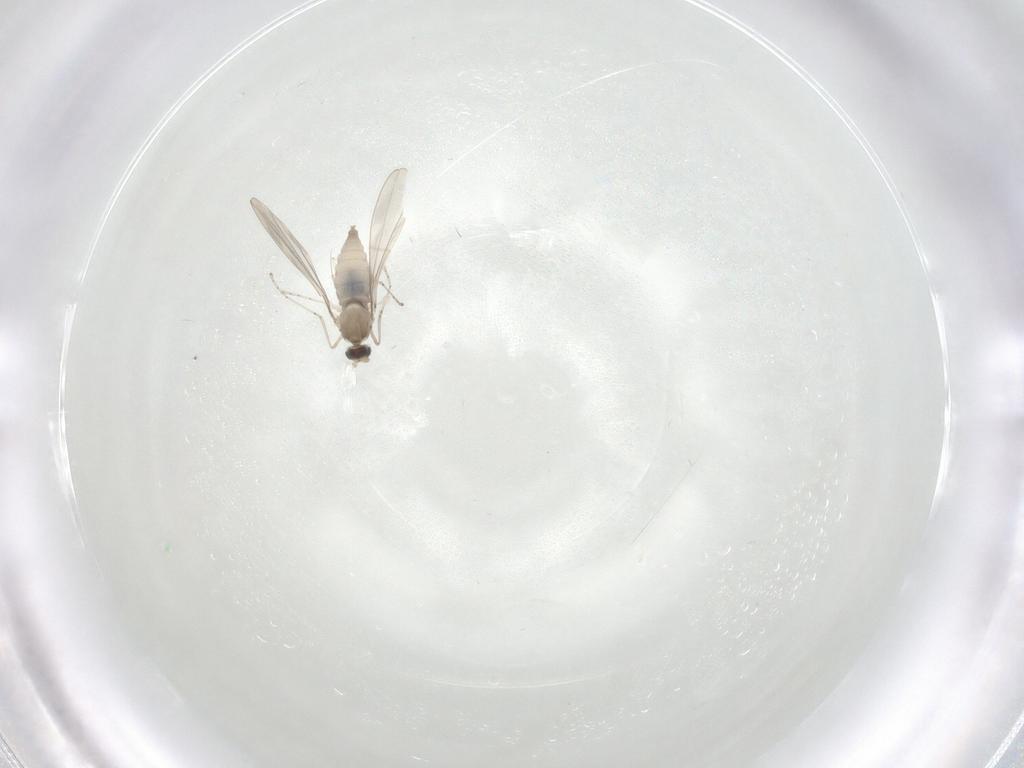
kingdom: Animalia
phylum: Arthropoda
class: Insecta
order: Diptera
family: Cecidomyiidae
